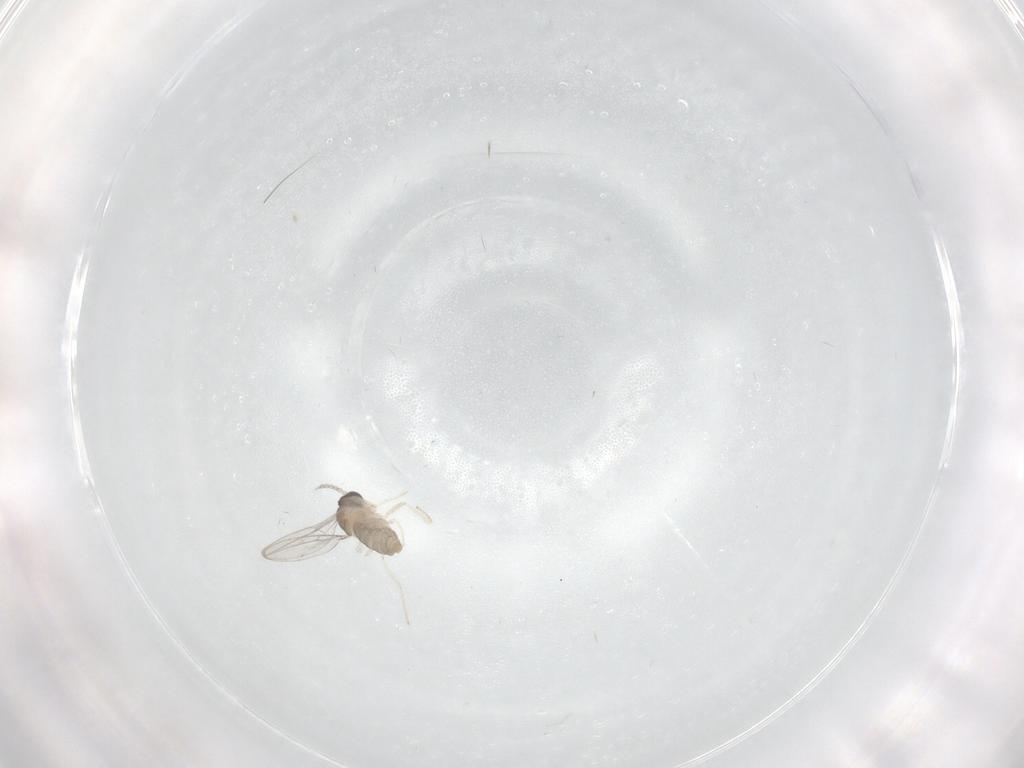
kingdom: Animalia
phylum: Arthropoda
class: Insecta
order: Diptera
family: Cecidomyiidae
